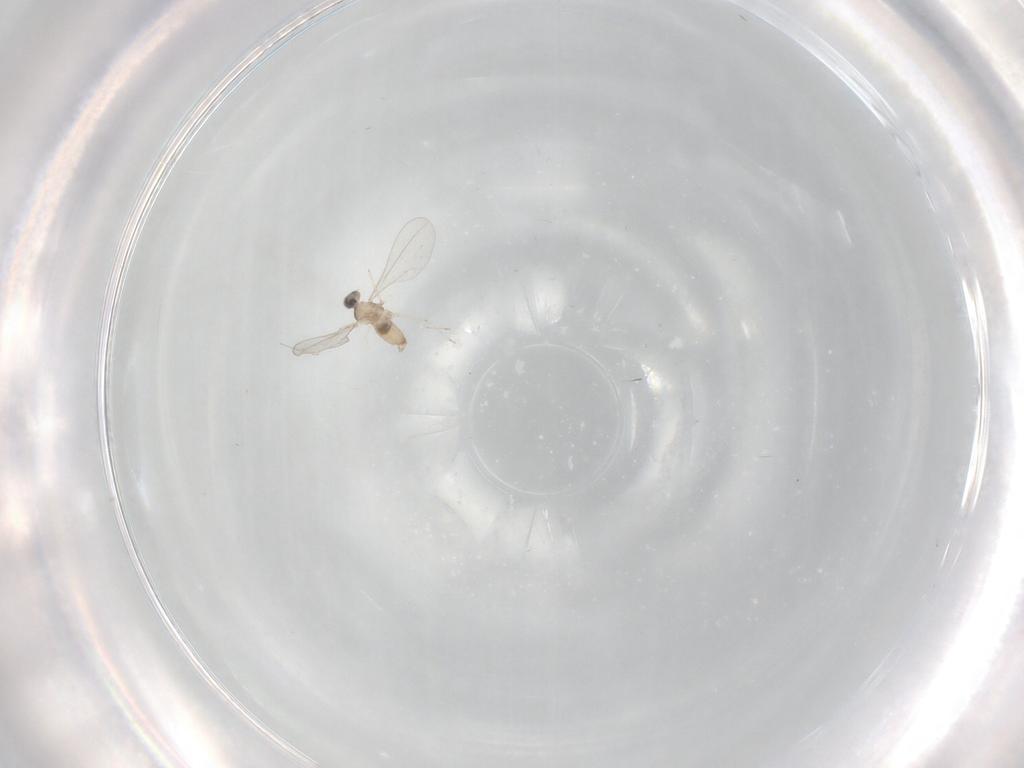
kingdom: Animalia
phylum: Arthropoda
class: Insecta
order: Diptera
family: Cecidomyiidae
